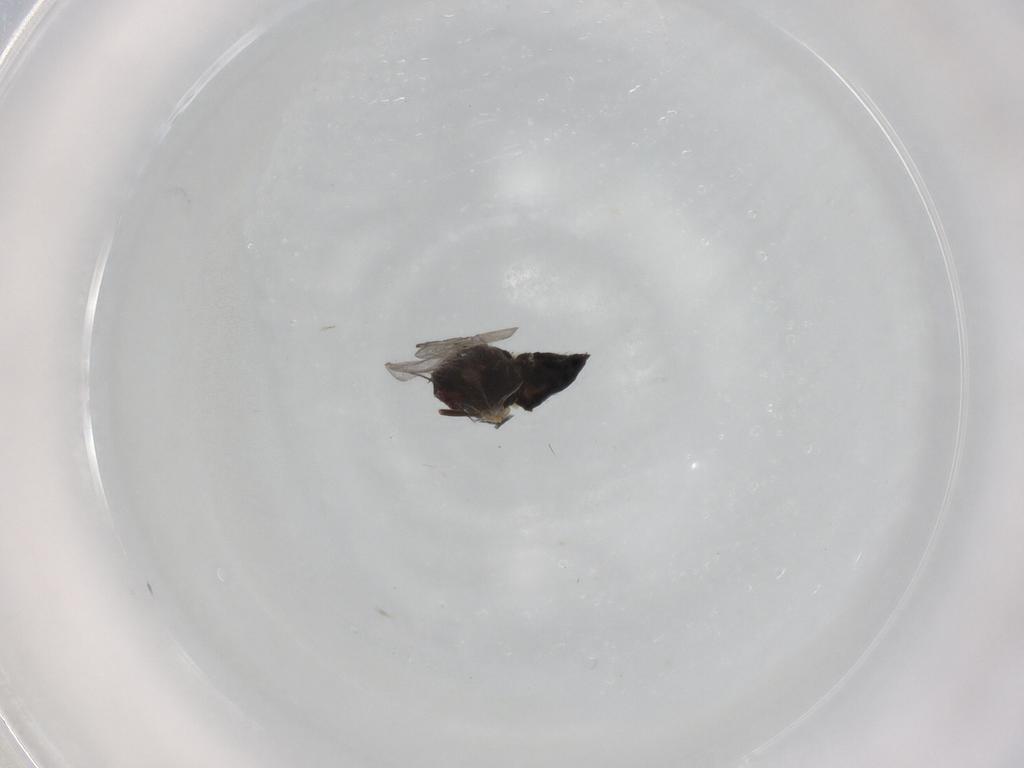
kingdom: Animalia
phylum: Arthropoda
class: Insecta
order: Diptera
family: Agromyzidae
